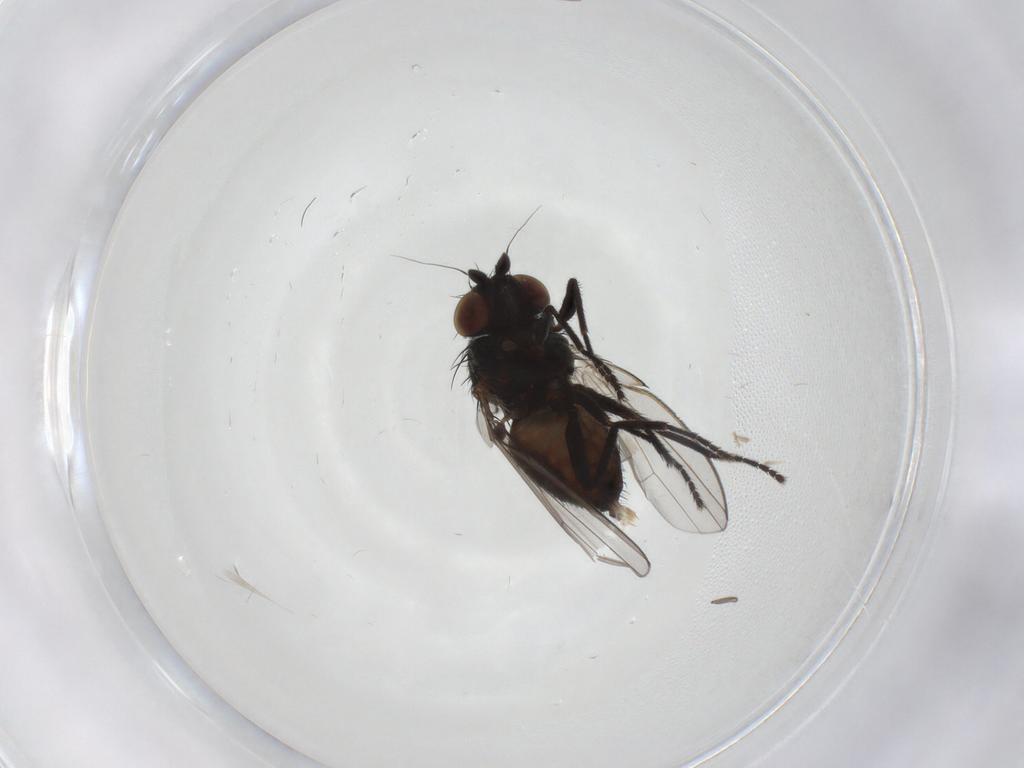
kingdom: Animalia
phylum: Arthropoda
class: Insecta
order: Diptera
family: Milichiidae
